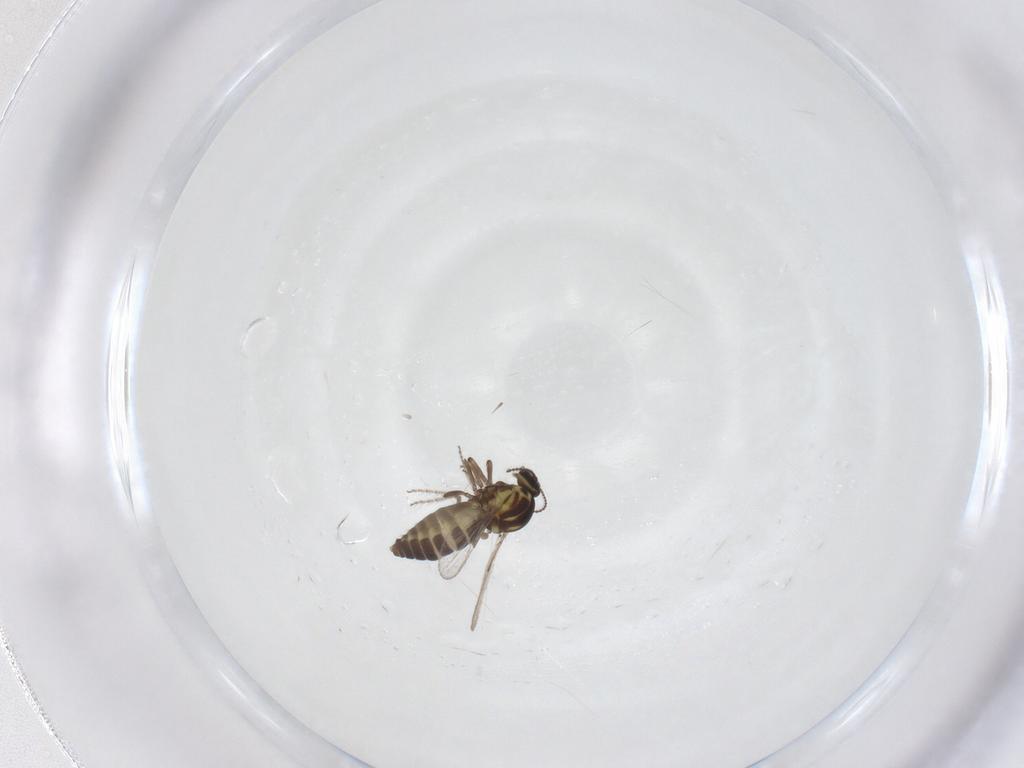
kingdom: Animalia
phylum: Arthropoda
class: Insecta
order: Diptera
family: Ceratopogonidae
